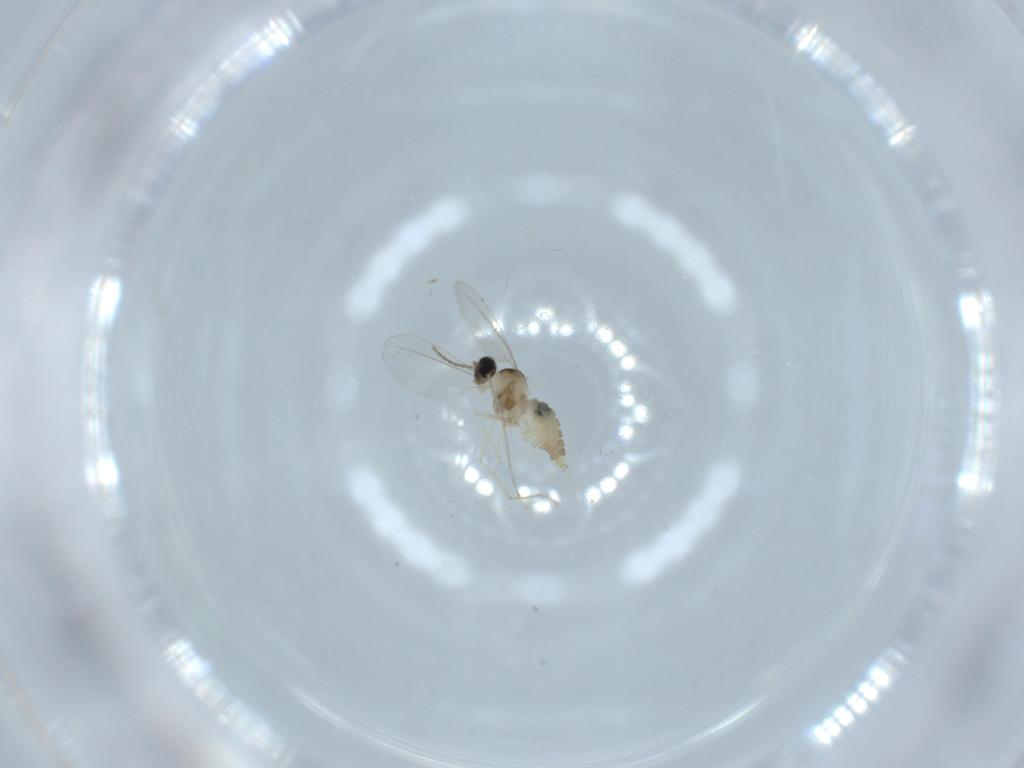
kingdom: Animalia
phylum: Arthropoda
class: Insecta
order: Diptera
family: Cecidomyiidae
